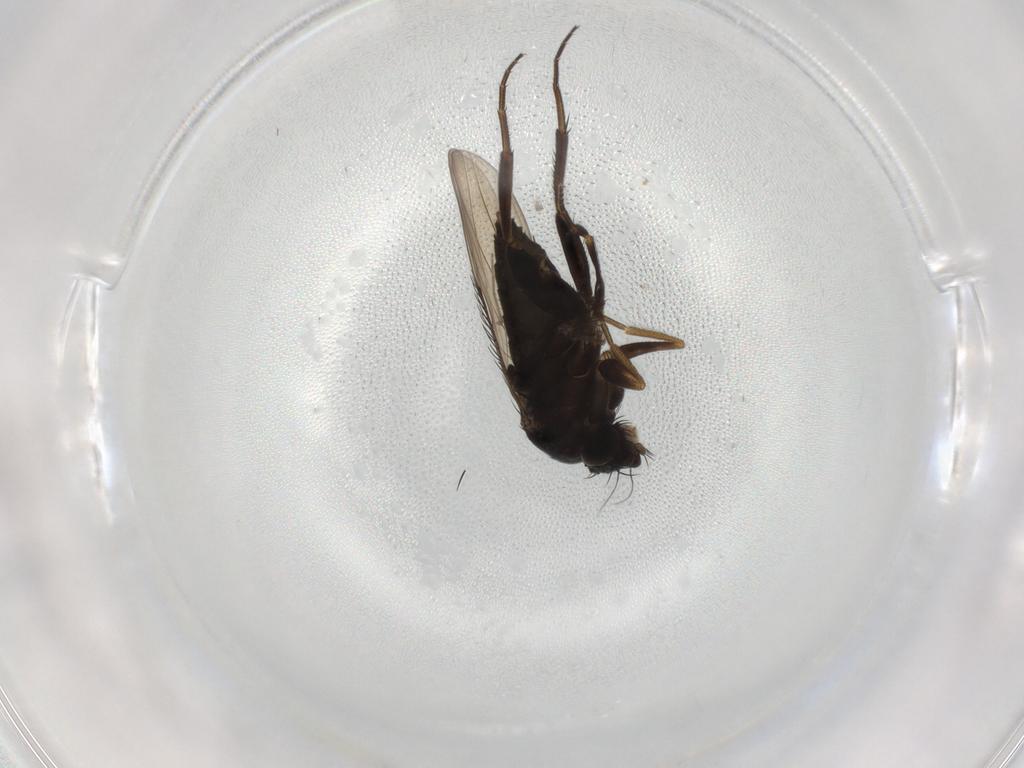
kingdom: Animalia
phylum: Arthropoda
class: Insecta
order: Diptera
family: Phoridae
